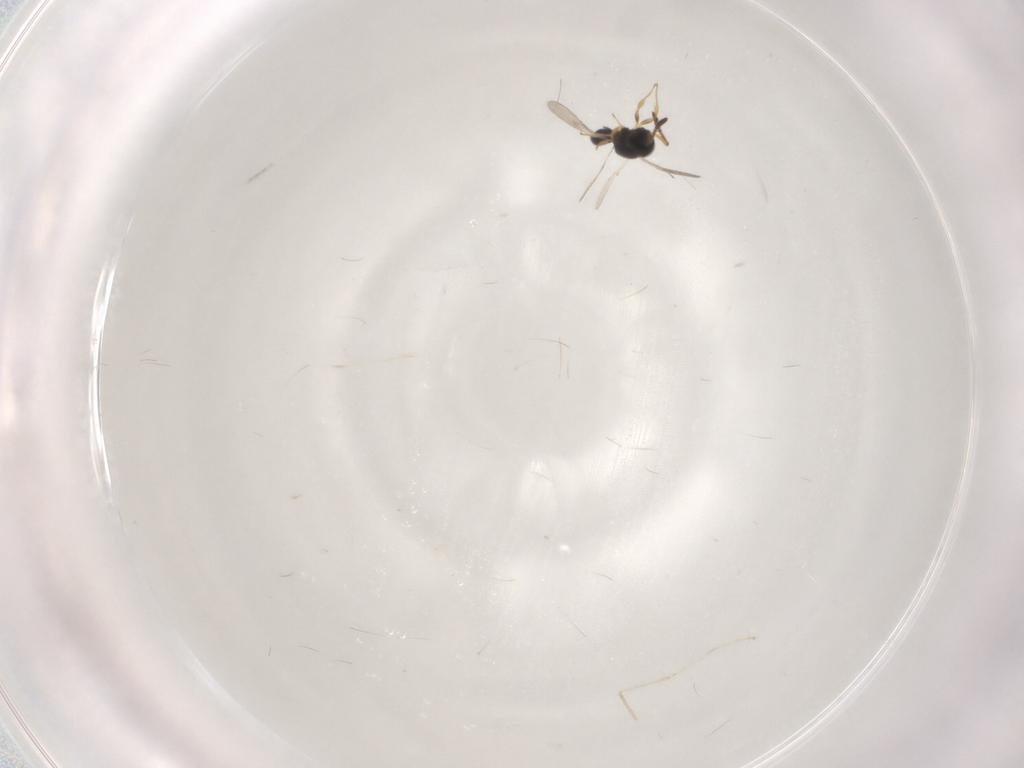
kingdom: Animalia
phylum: Arthropoda
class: Insecta
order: Hymenoptera
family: Scelionidae
